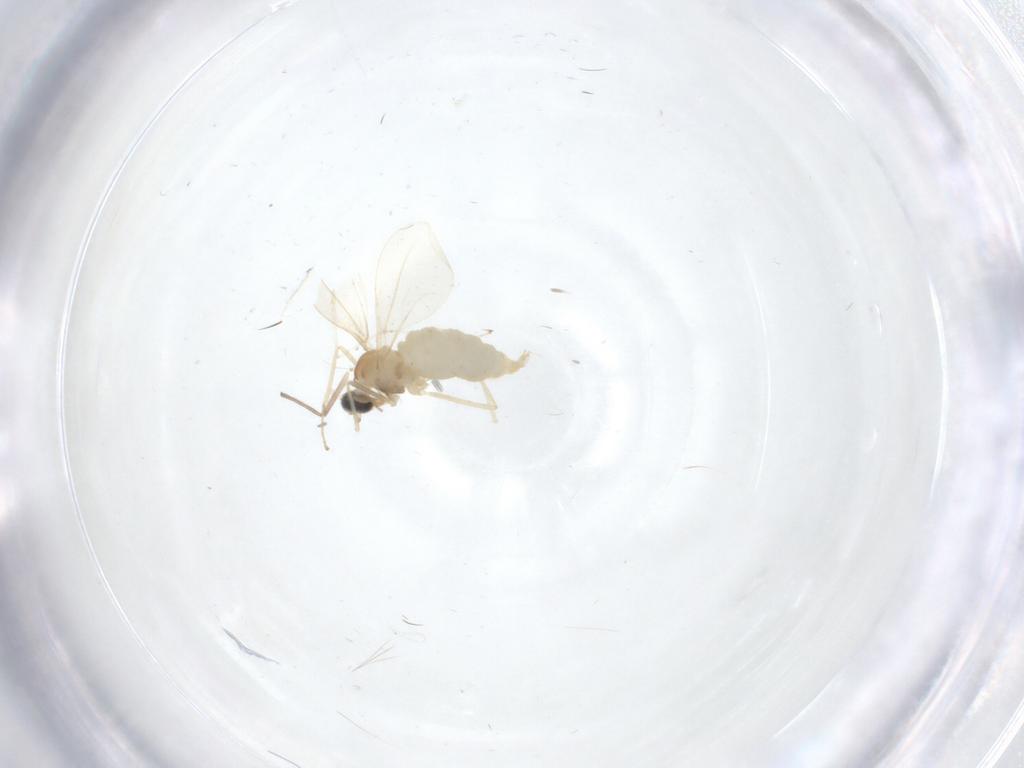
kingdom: Animalia
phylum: Arthropoda
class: Insecta
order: Diptera
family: Cecidomyiidae
